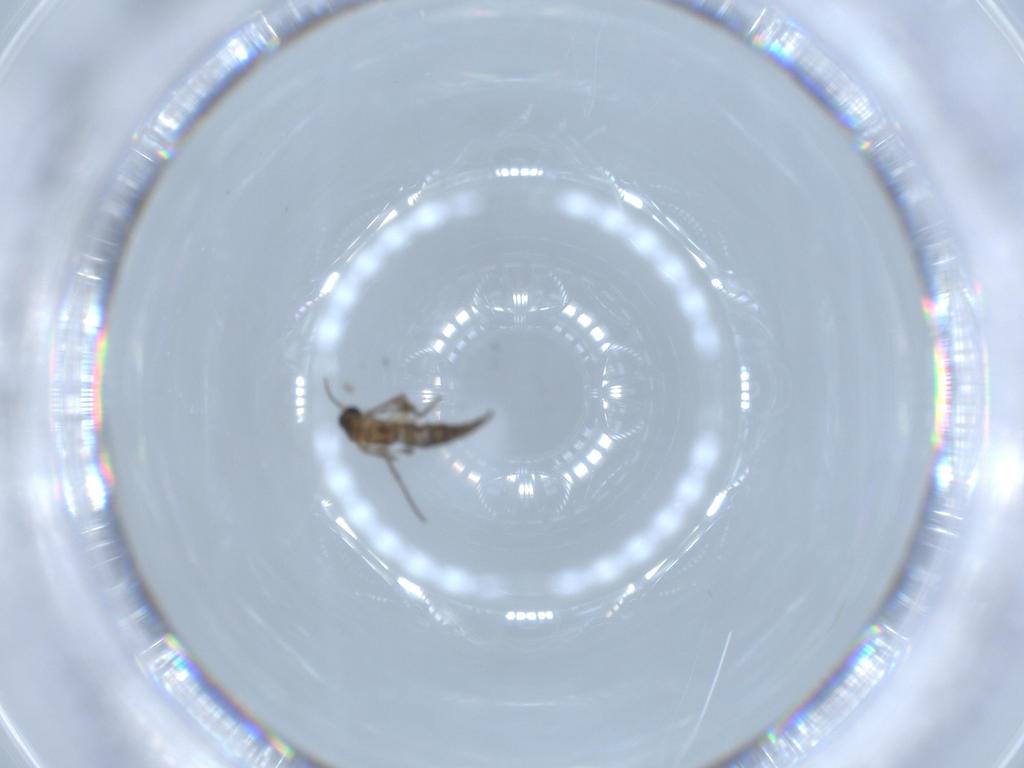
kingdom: Animalia
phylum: Arthropoda
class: Insecta
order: Diptera
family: Sciaridae
